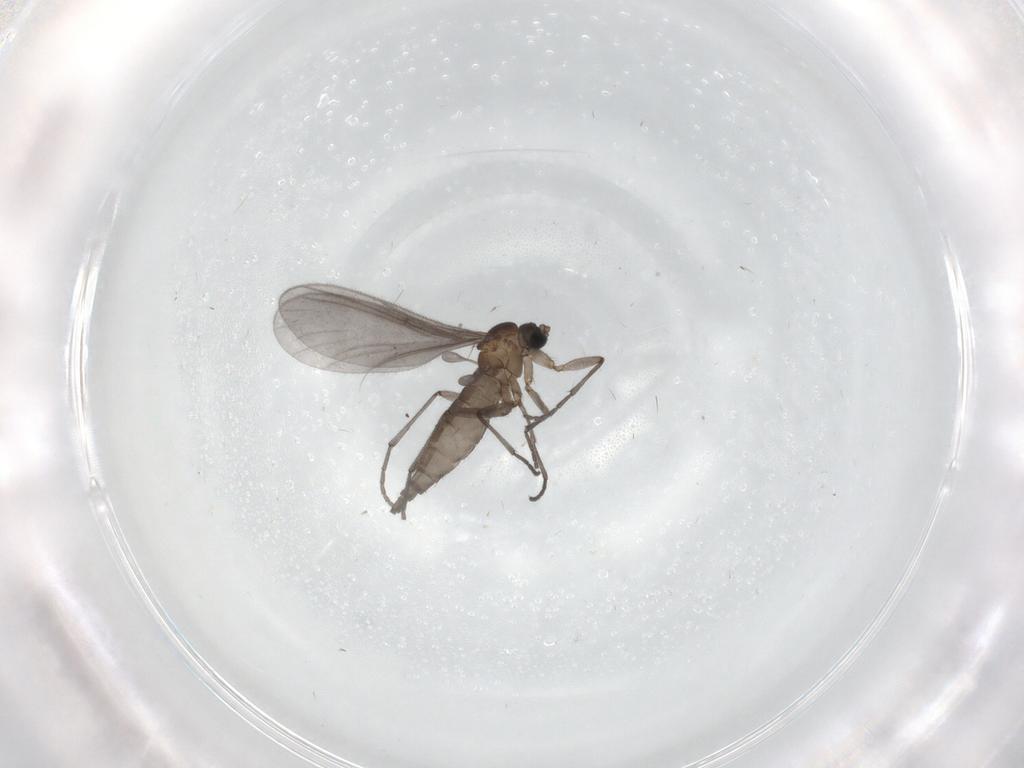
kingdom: Animalia
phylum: Arthropoda
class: Insecta
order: Diptera
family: Sciaridae
